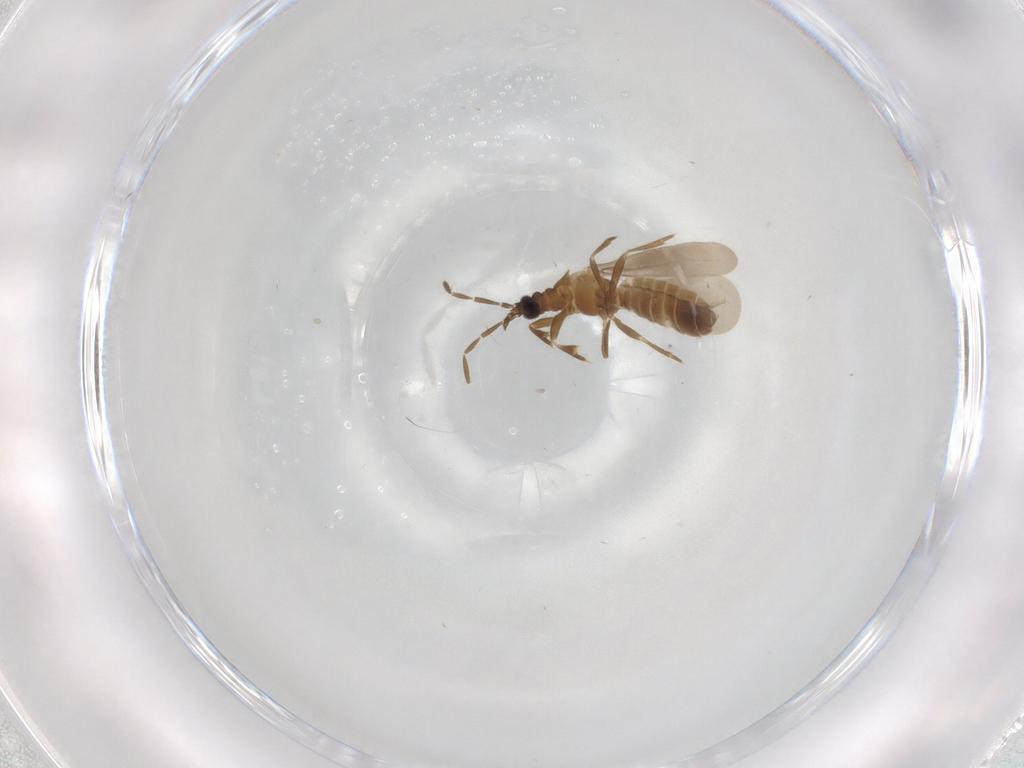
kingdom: Animalia
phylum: Arthropoda
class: Insecta
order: Hemiptera
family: Enicocephalidae
